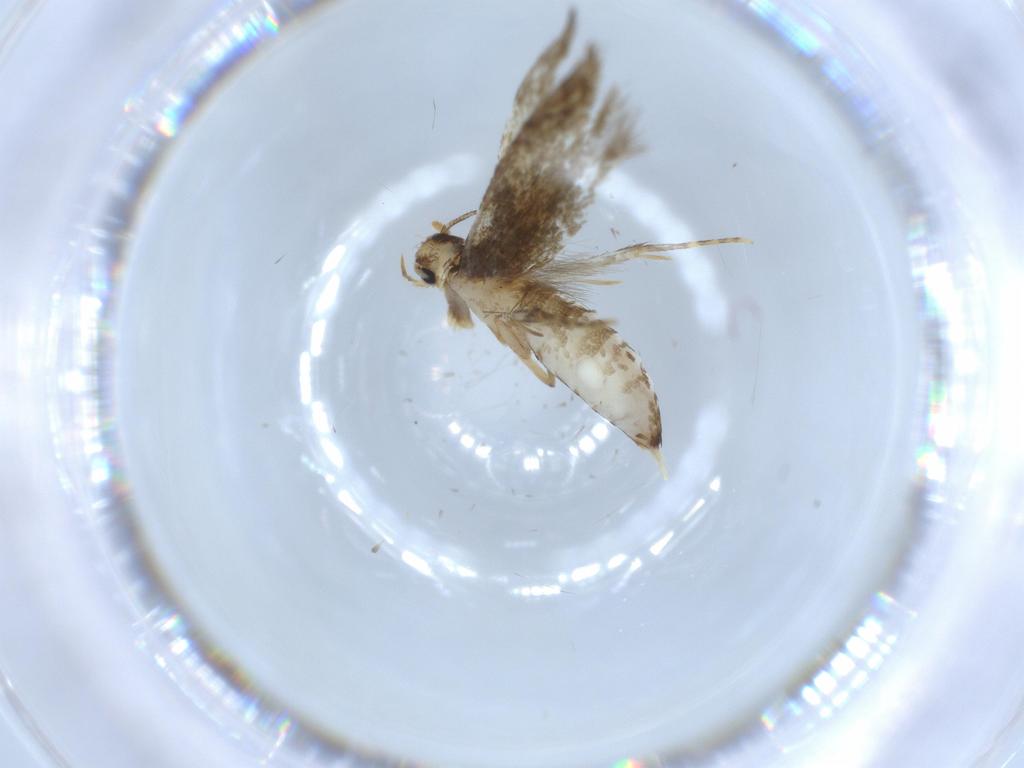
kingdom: Animalia
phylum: Arthropoda
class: Insecta
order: Lepidoptera
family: Tineidae
